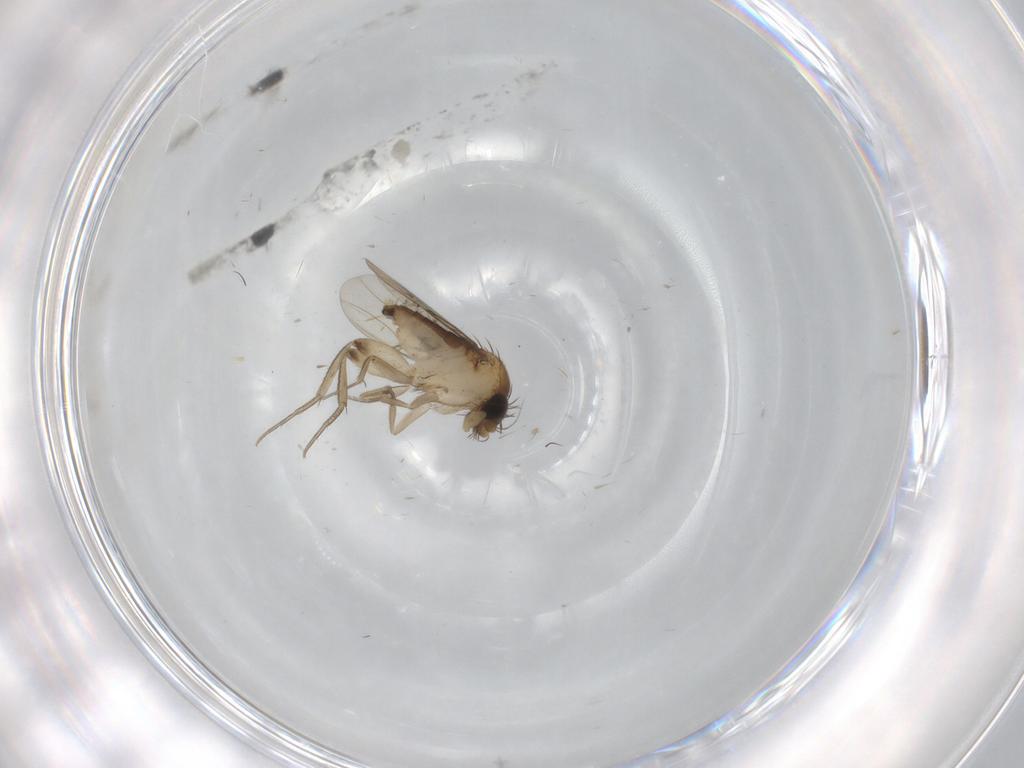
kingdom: Animalia
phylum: Arthropoda
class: Insecta
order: Diptera
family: Phoridae
